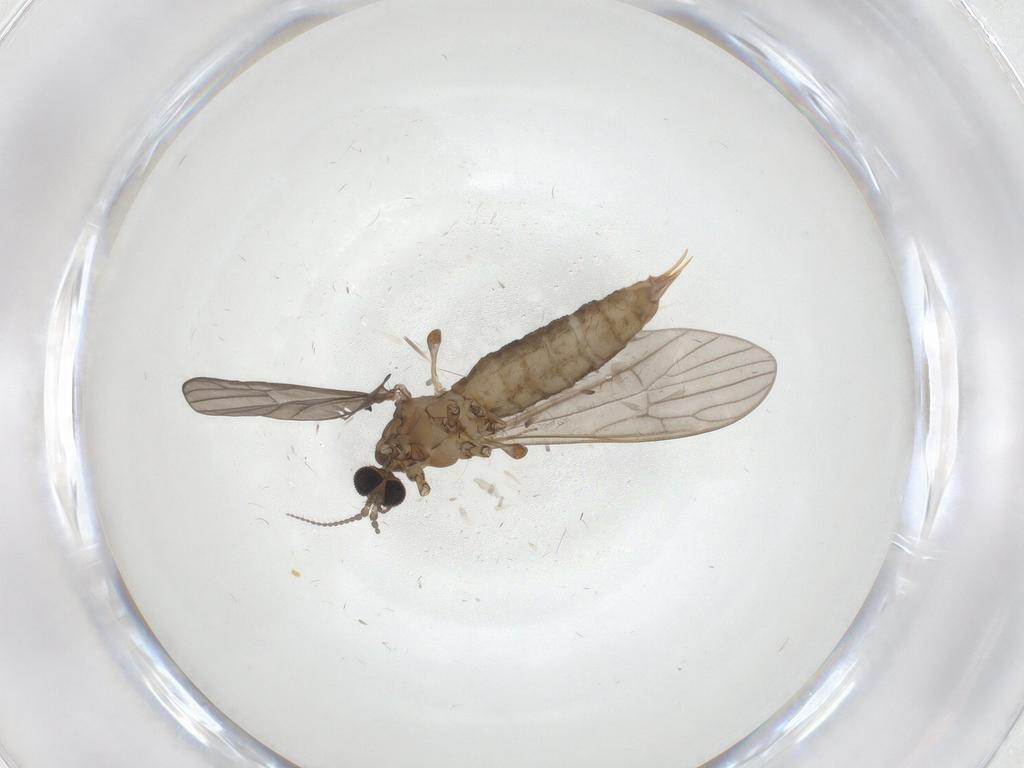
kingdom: Animalia
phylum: Arthropoda
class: Insecta
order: Diptera
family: Limoniidae
